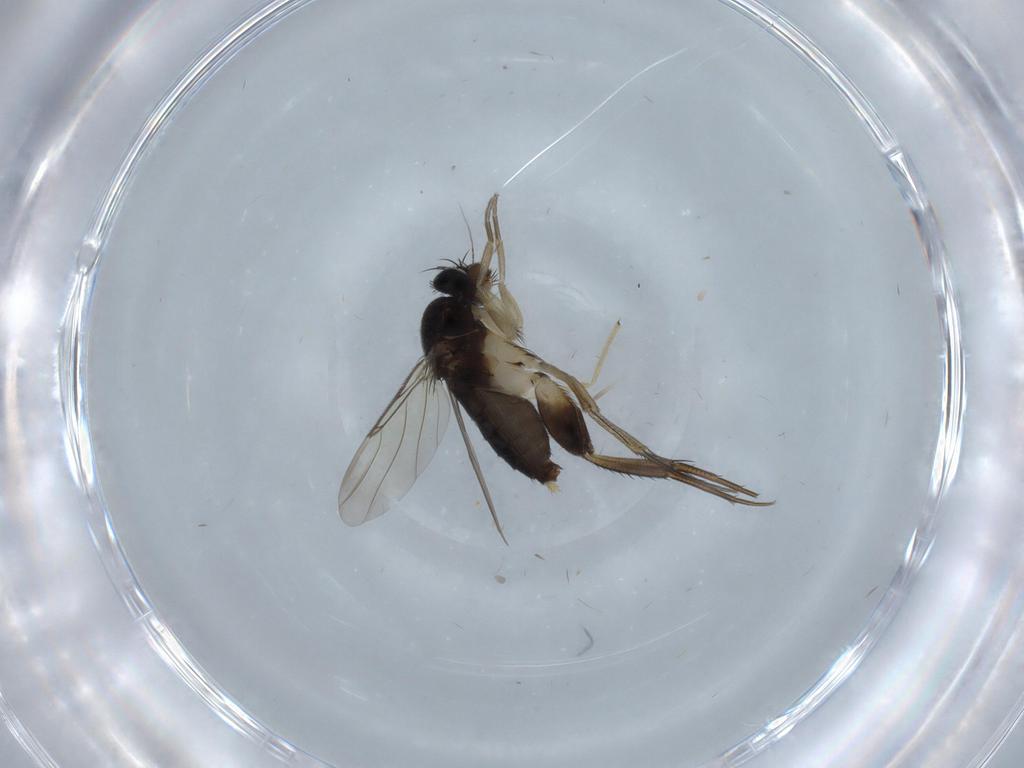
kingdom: Animalia
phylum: Arthropoda
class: Insecta
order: Diptera
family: Phoridae
